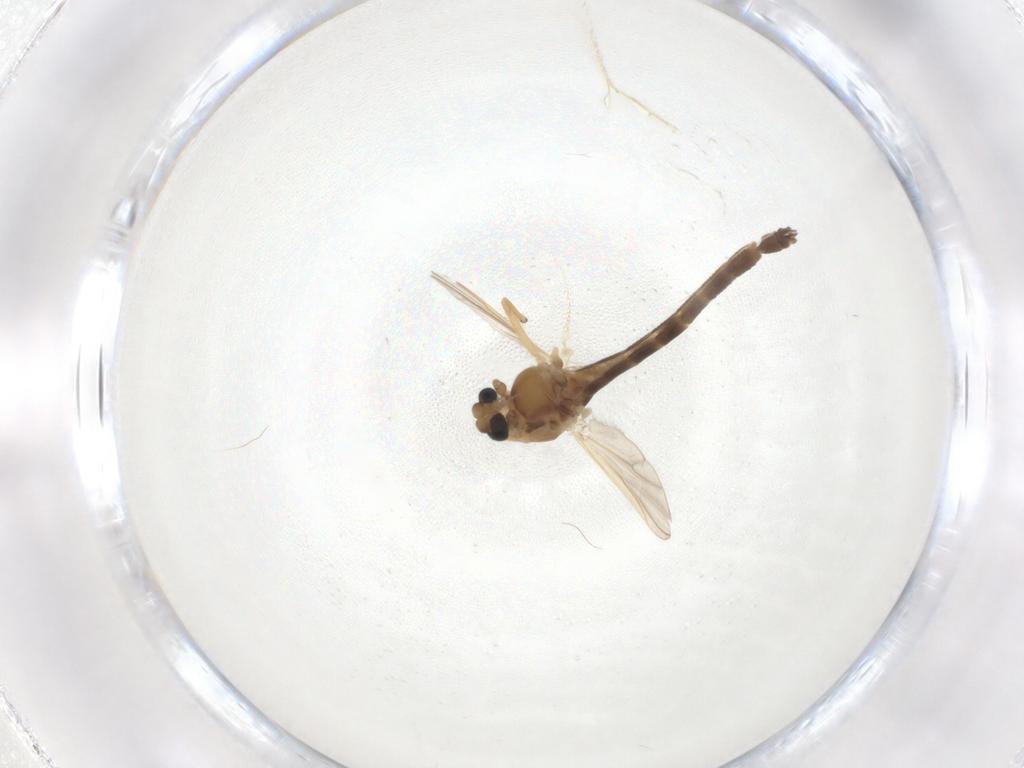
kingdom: Animalia
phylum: Arthropoda
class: Insecta
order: Diptera
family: Chironomidae
